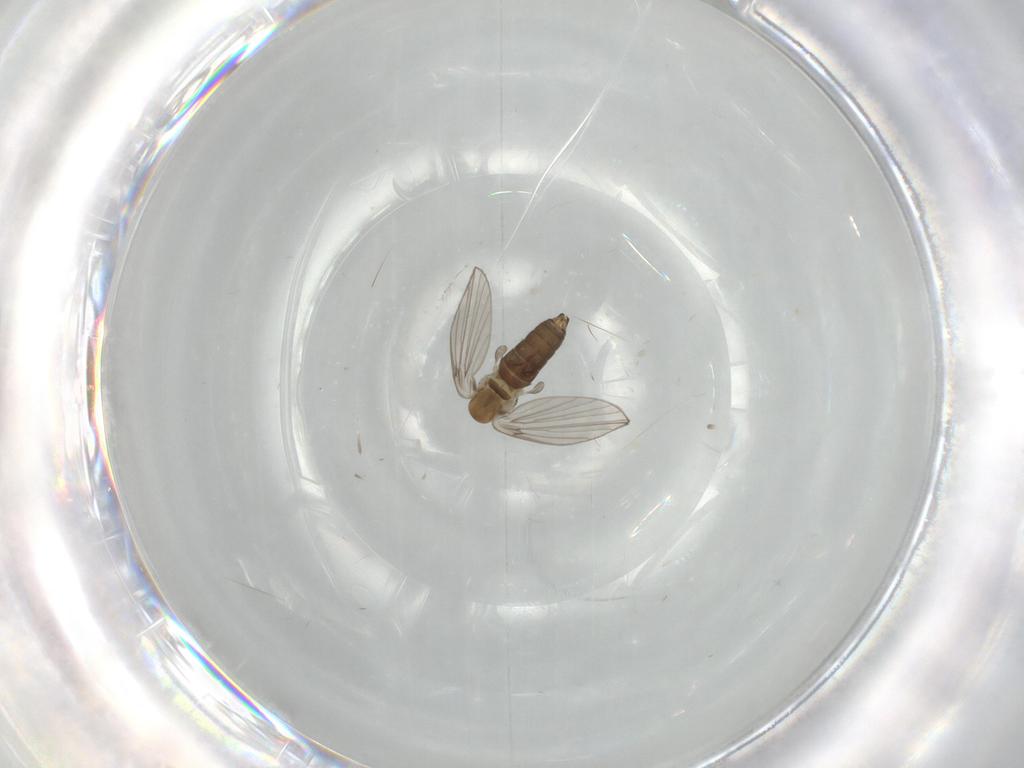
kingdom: Animalia
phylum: Arthropoda
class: Insecta
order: Diptera
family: Psychodidae
